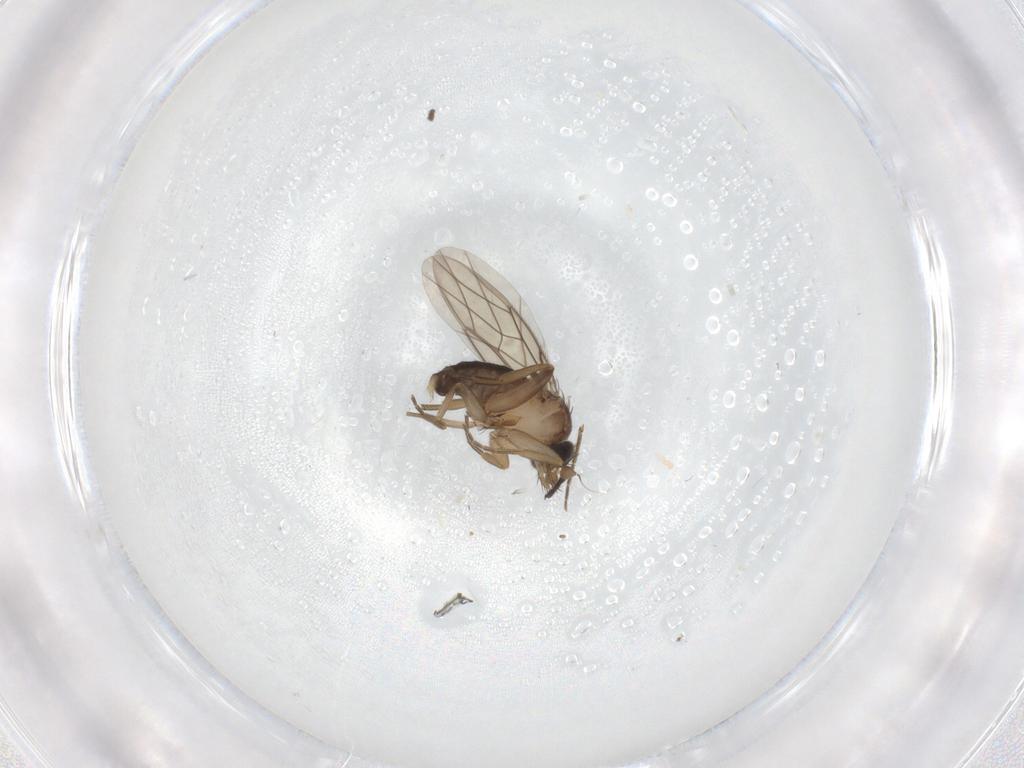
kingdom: Animalia
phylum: Arthropoda
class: Insecta
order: Diptera
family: Phoridae
